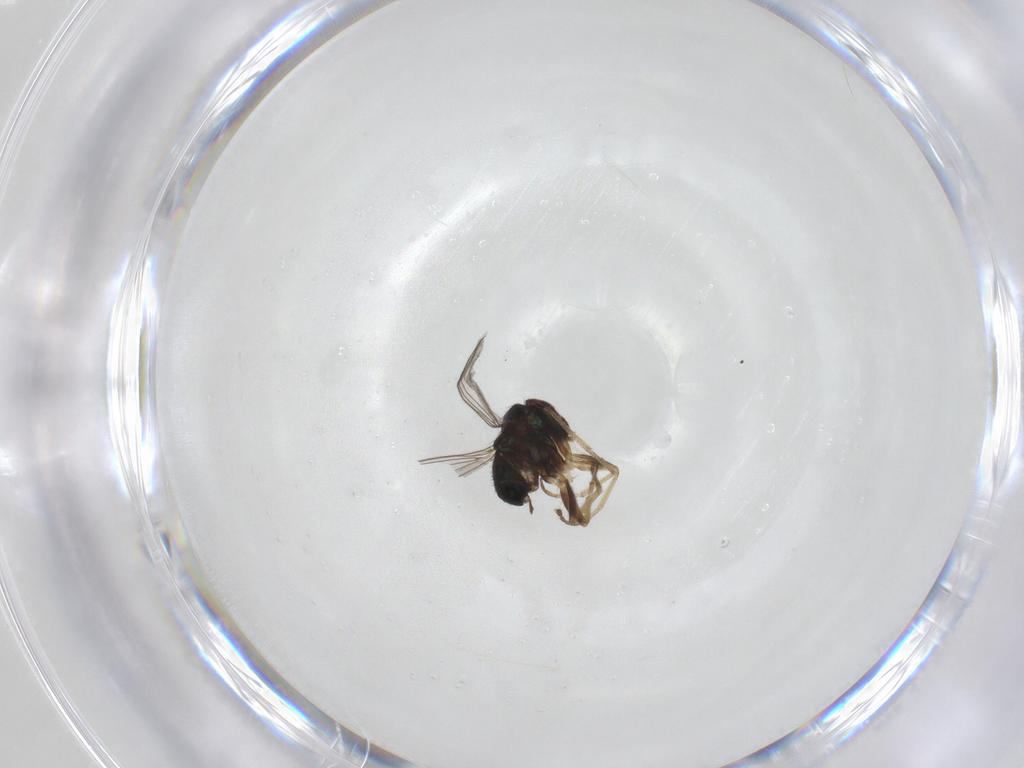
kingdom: Animalia
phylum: Arthropoda
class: Insecta
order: Diptera
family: Dolichopodidae
